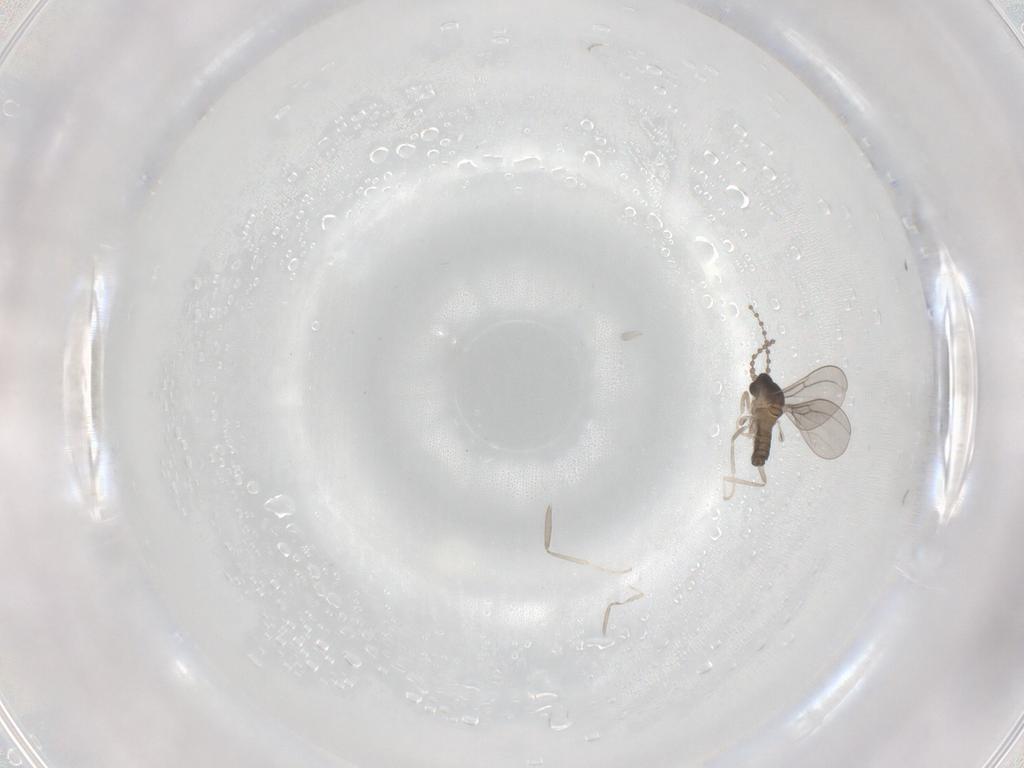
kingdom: Animalia
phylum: Arthropoda
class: Insecta
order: Diptera
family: Cecidomyiidae
